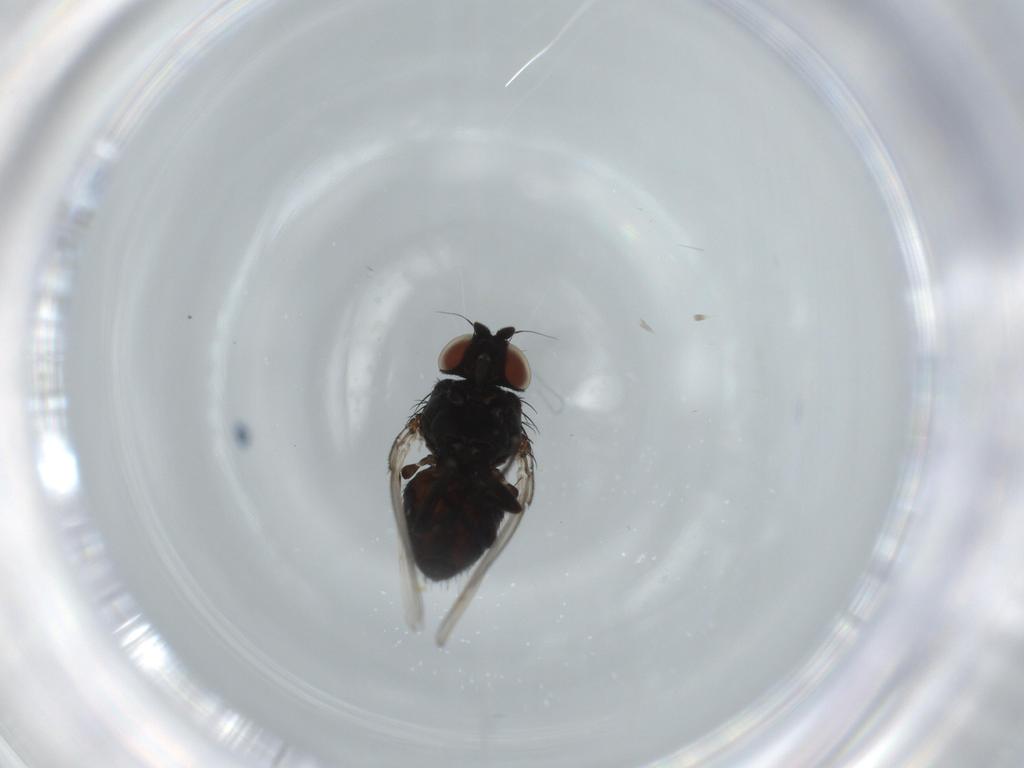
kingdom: Animalia
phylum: Arthropoda
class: Insecta
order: Diptera
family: Milichiidae
